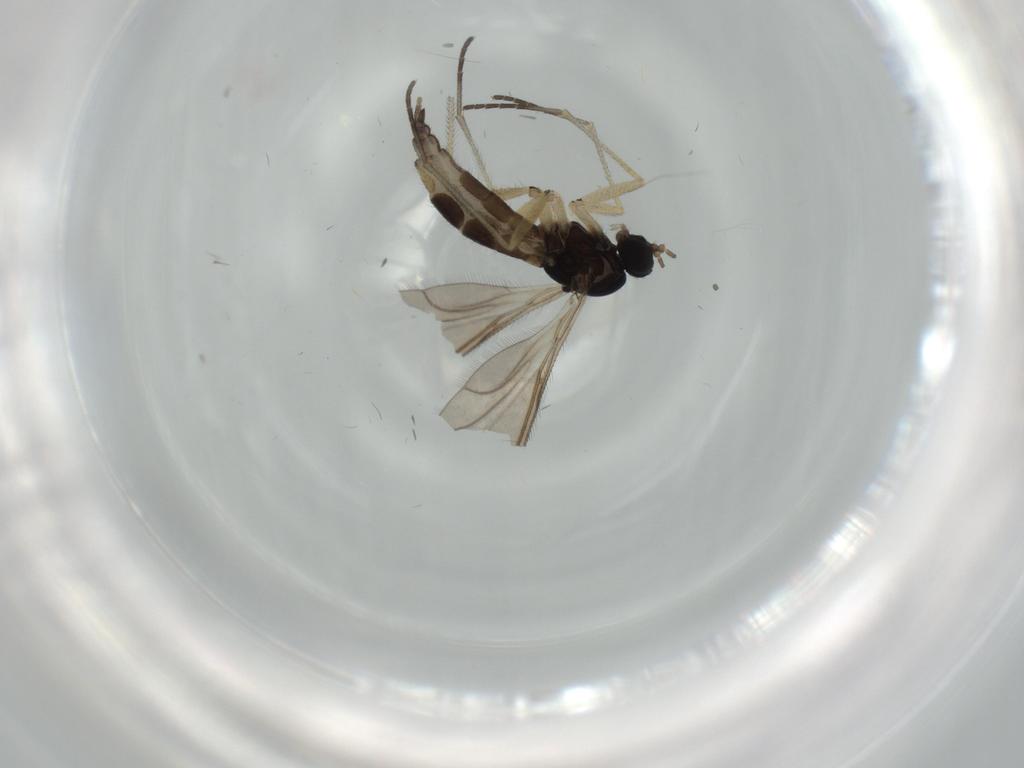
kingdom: Animalia
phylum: Arthropoda
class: Insecta
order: Diptera
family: Sciaridae
